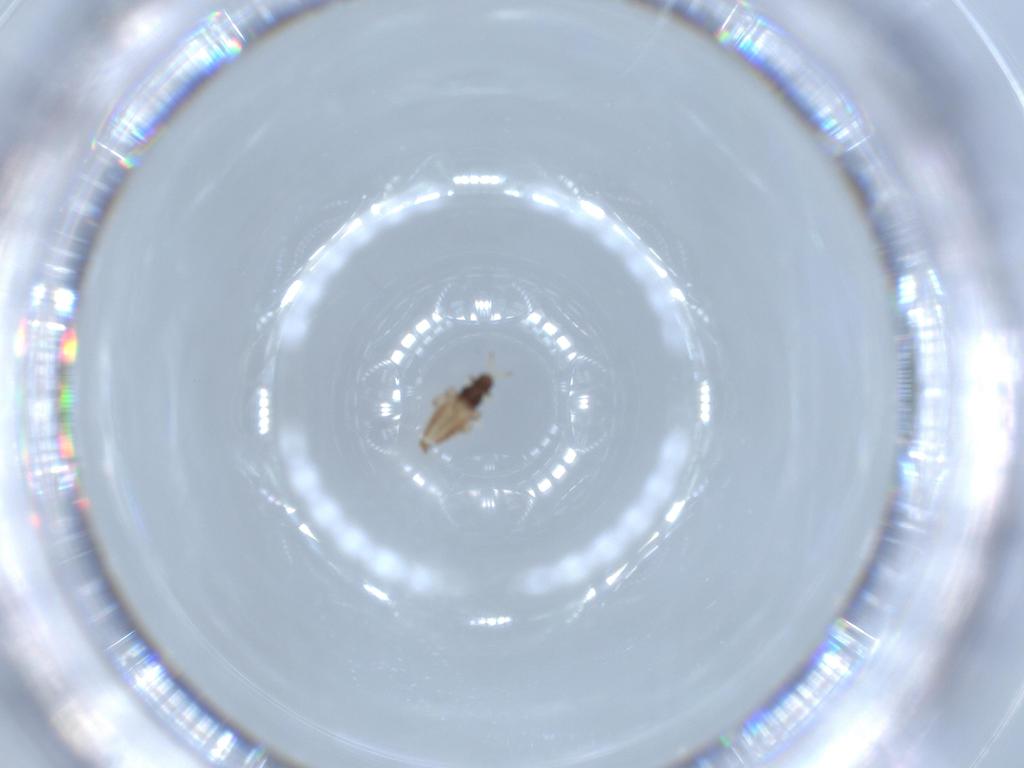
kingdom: Animalia
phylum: Arthropoda
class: Insecta
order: Thysanoptera
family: Phlaeothripidae
